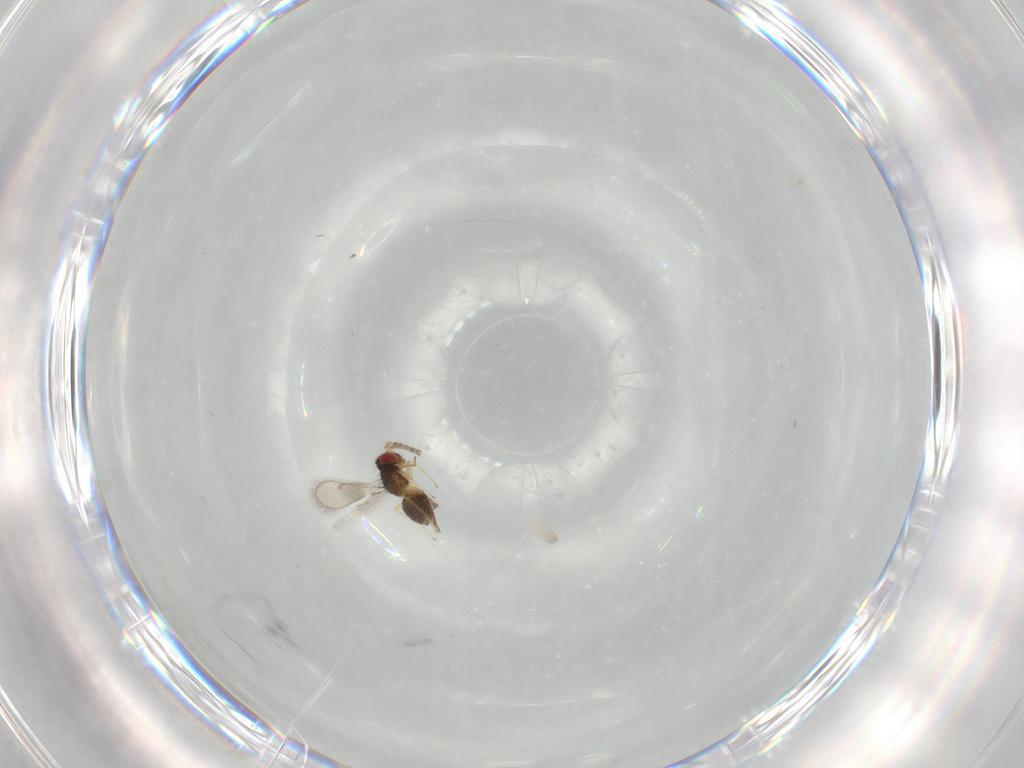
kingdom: Animalia
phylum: Arthropoda
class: Insecta
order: Hymenoptera
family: Eulophidae
